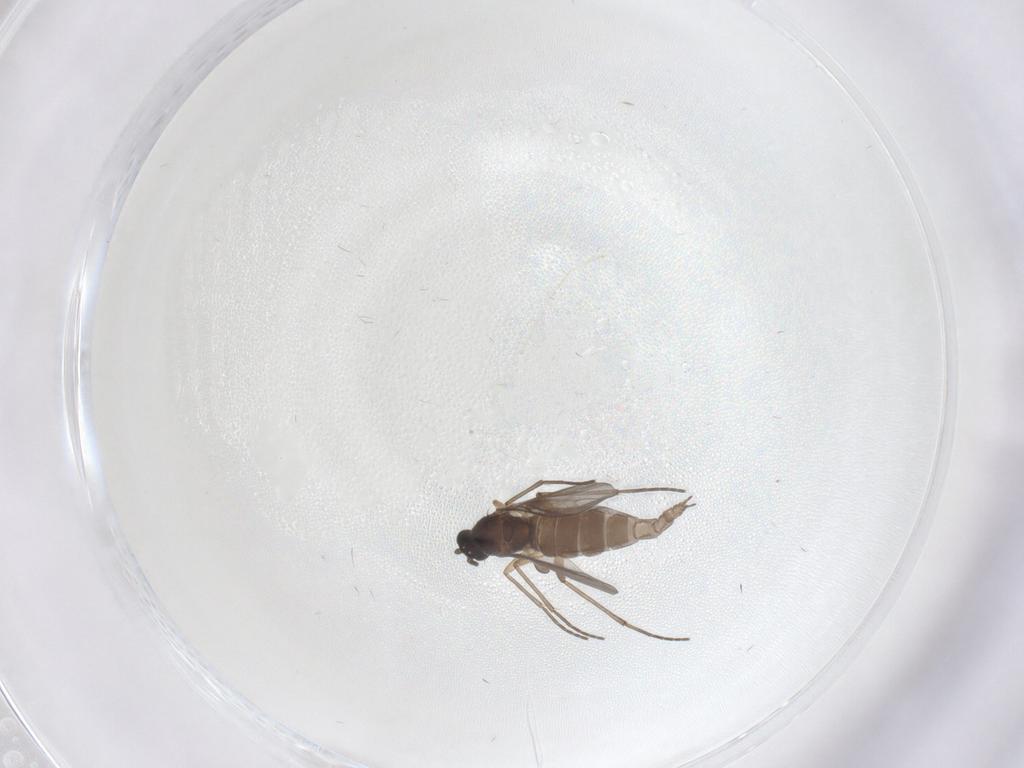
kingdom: Animalia
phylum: Arthropoda
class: Insecta
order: Diptera
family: Sciaridae
